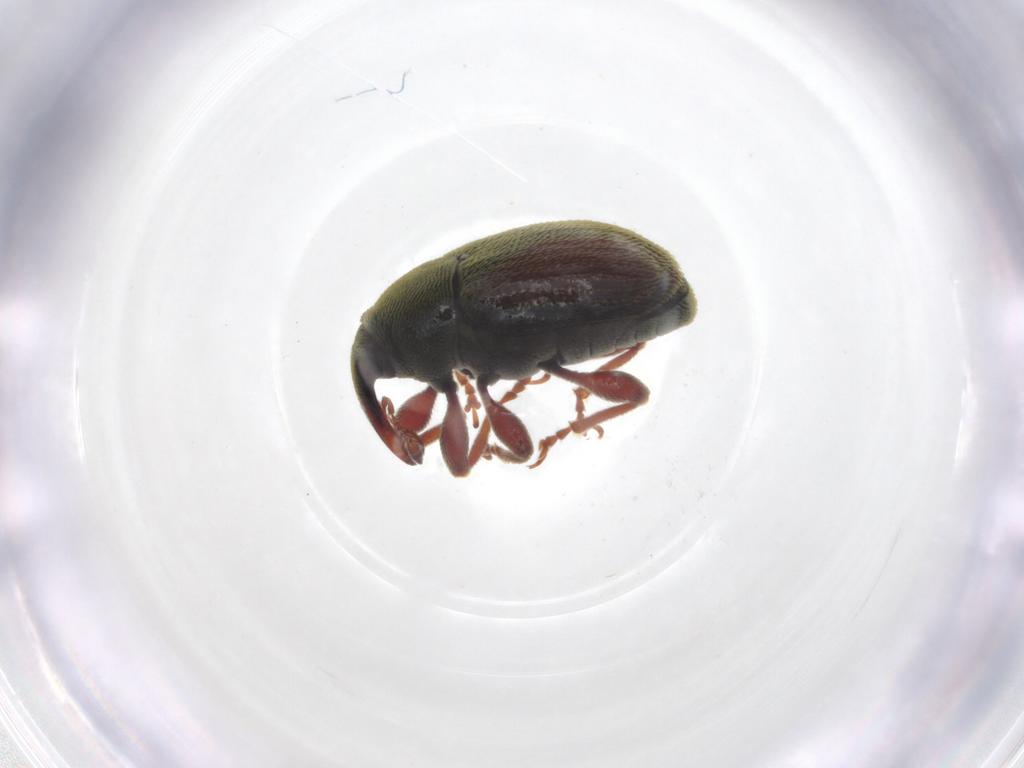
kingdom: Animalia
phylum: Arthropoda
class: Insecta
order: Coleoptera
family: Curculionidae
